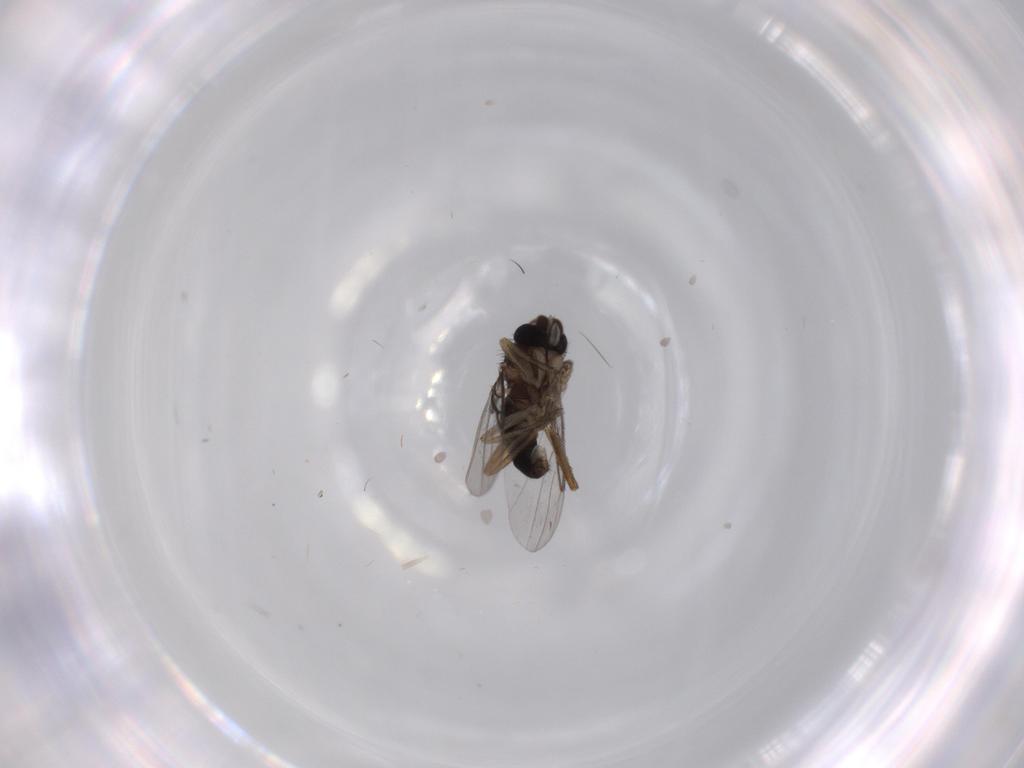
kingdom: Animalia
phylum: Arthropoda
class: Insecta
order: Diptera
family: Phoridae
